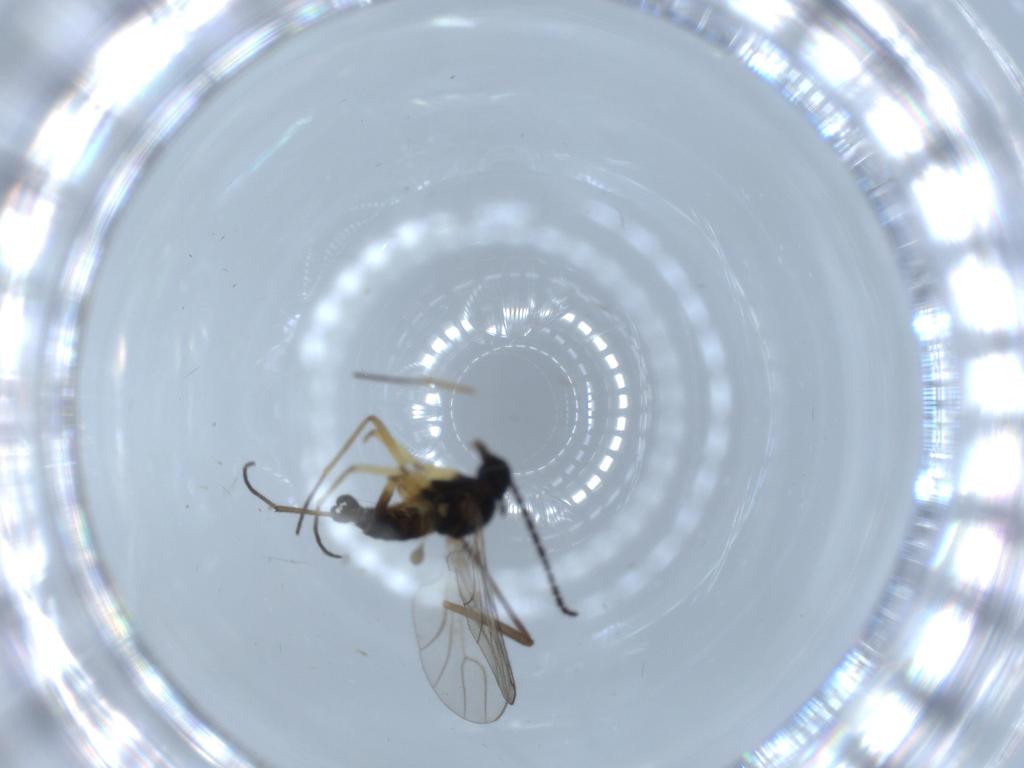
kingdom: Animalia
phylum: Arthropoda
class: Insecta
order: Diptera
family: Sciaridae
